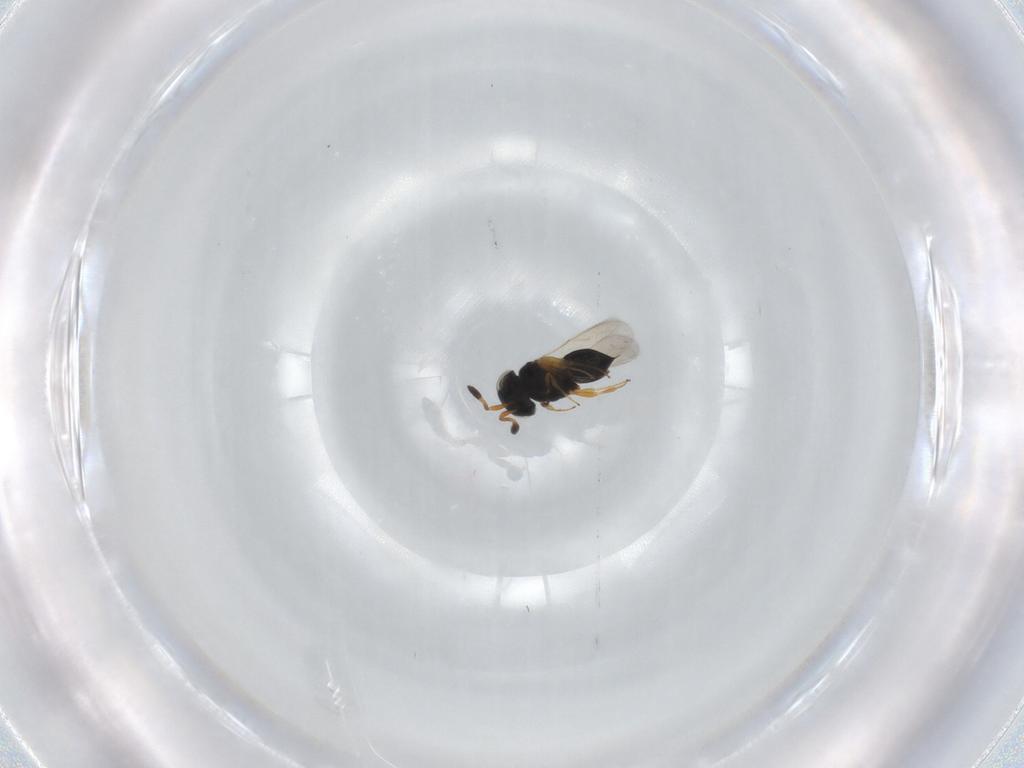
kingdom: Animalia
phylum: Arthropoda
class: Insecta
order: Hymenoptera
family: Scelionidae
